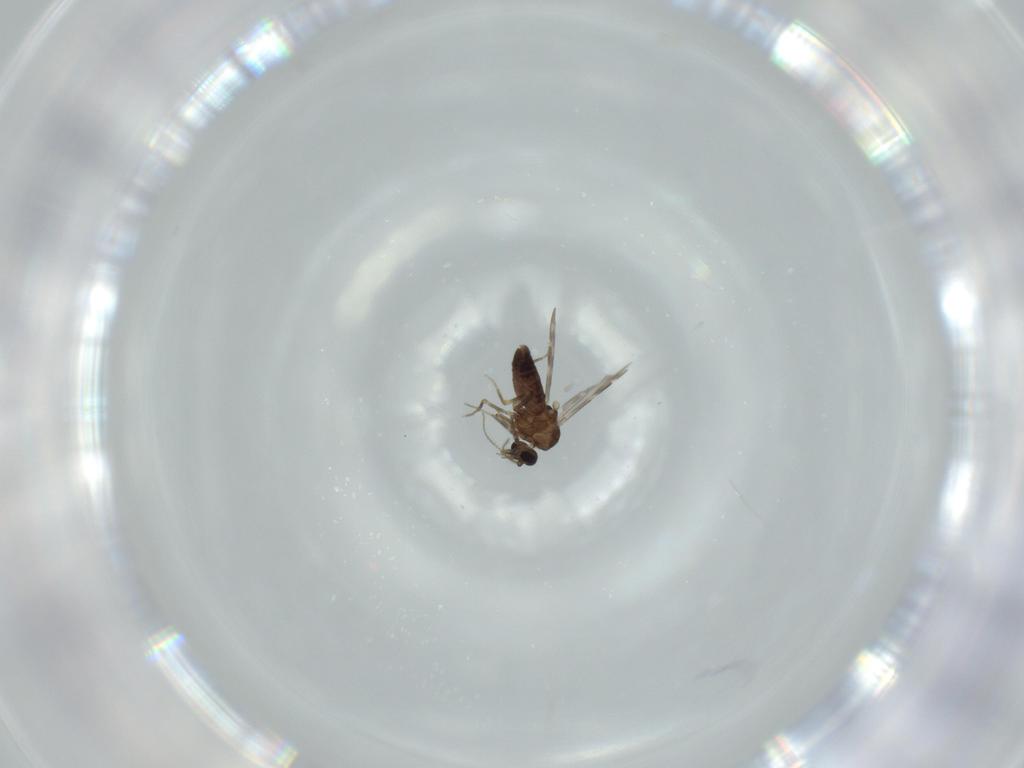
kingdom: Animalia
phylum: Arthropoda
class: Insecta
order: Diptera
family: Ceratopogonidae
